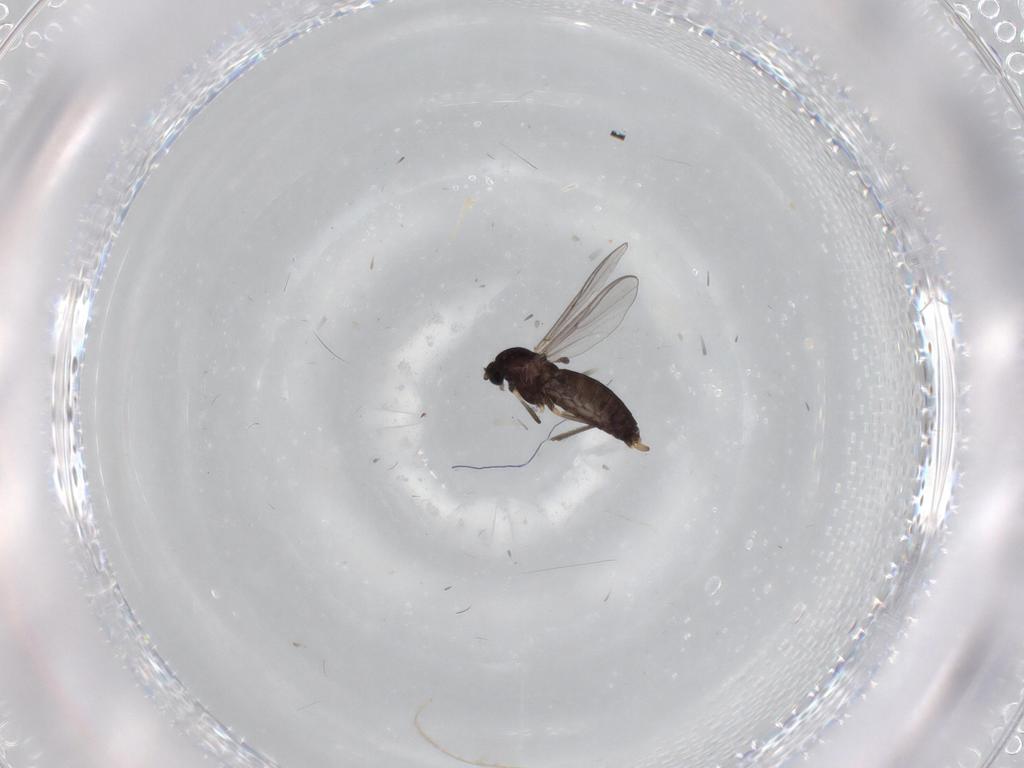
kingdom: Animalia
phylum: Arthropoda
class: Insecta
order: Diptera
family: Chironomidae
